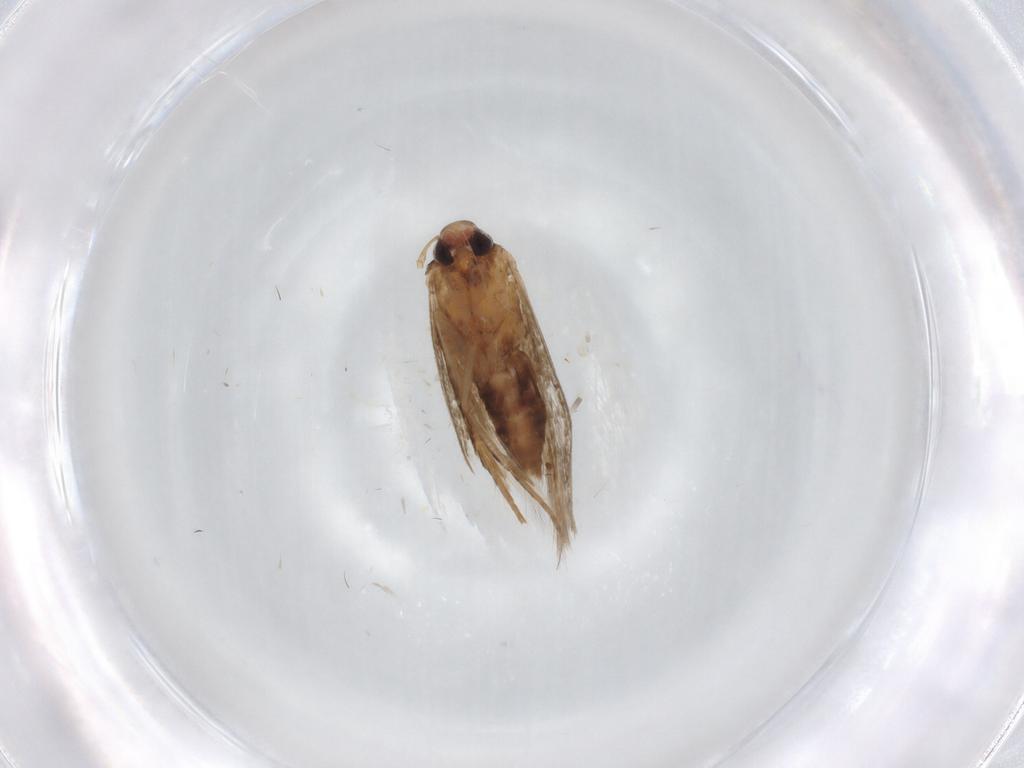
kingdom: Animalia
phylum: Arthropoda
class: Insecta
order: Lepidoptera
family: Cosmopterigidae
